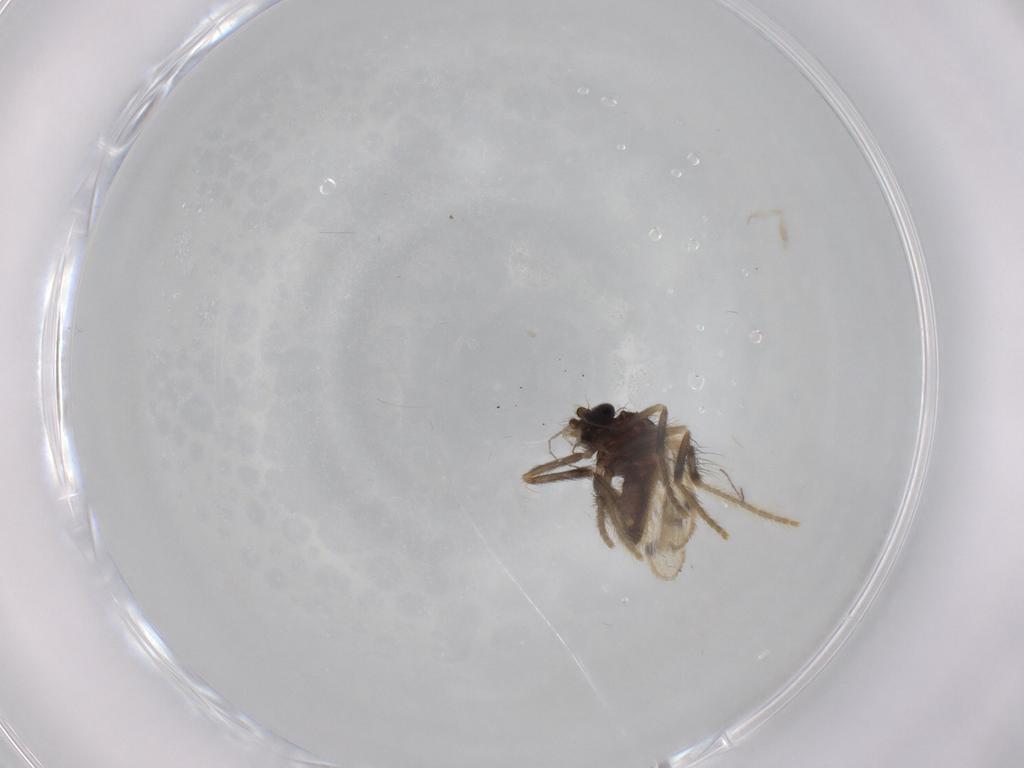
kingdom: Animalia
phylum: Arthropoda
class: Insecta
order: Diptera
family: Corethrellidae
